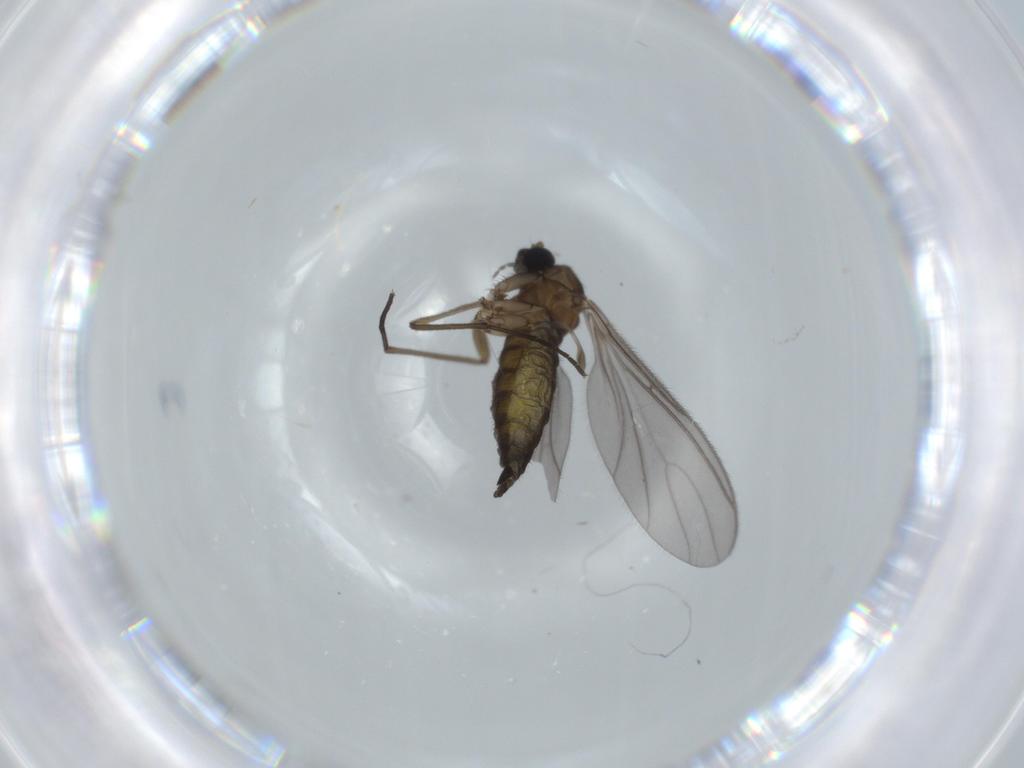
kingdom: Animalia
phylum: Arthropoda
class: Insecta
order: Diptera
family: Sciaridae
